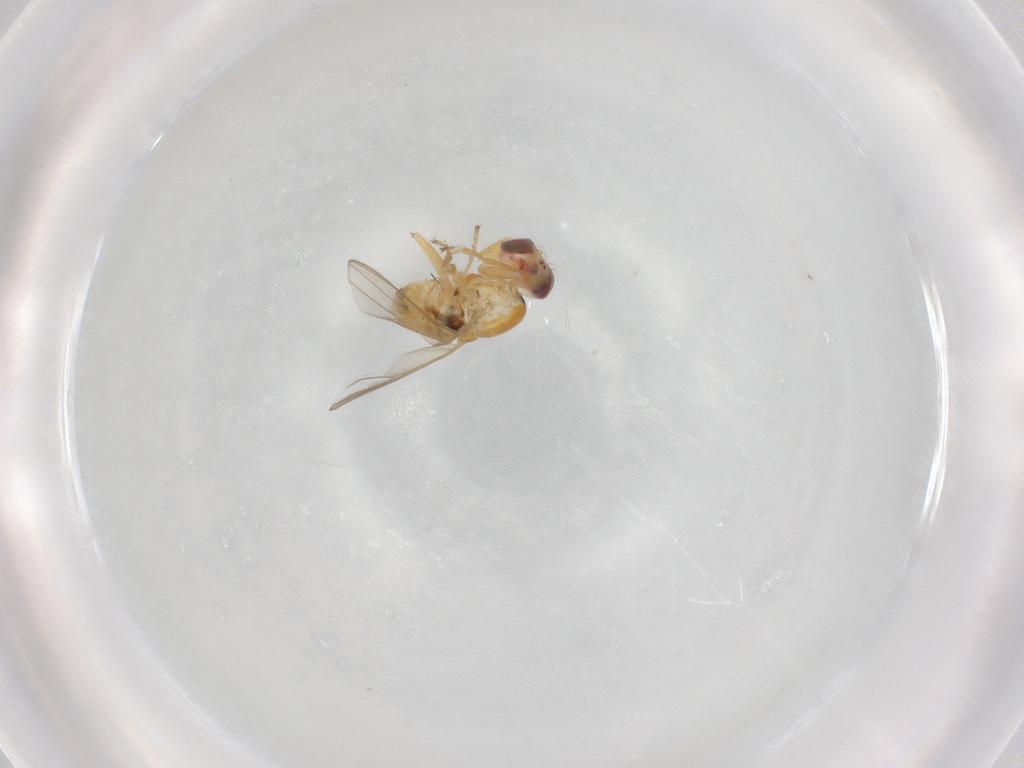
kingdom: Animalia
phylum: Arthropoda
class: Insecta
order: Diptera
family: Chyromyidae
